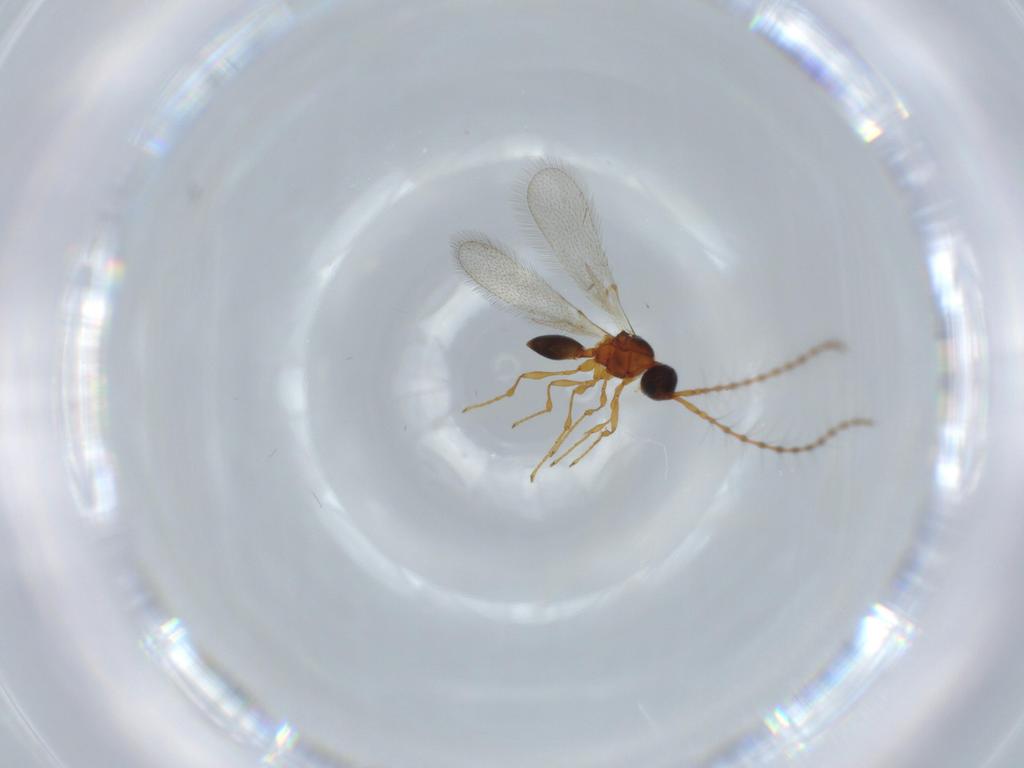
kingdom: Animalia
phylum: Arthropoda
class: Insecta
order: Hymenoptera
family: Diapriidae
